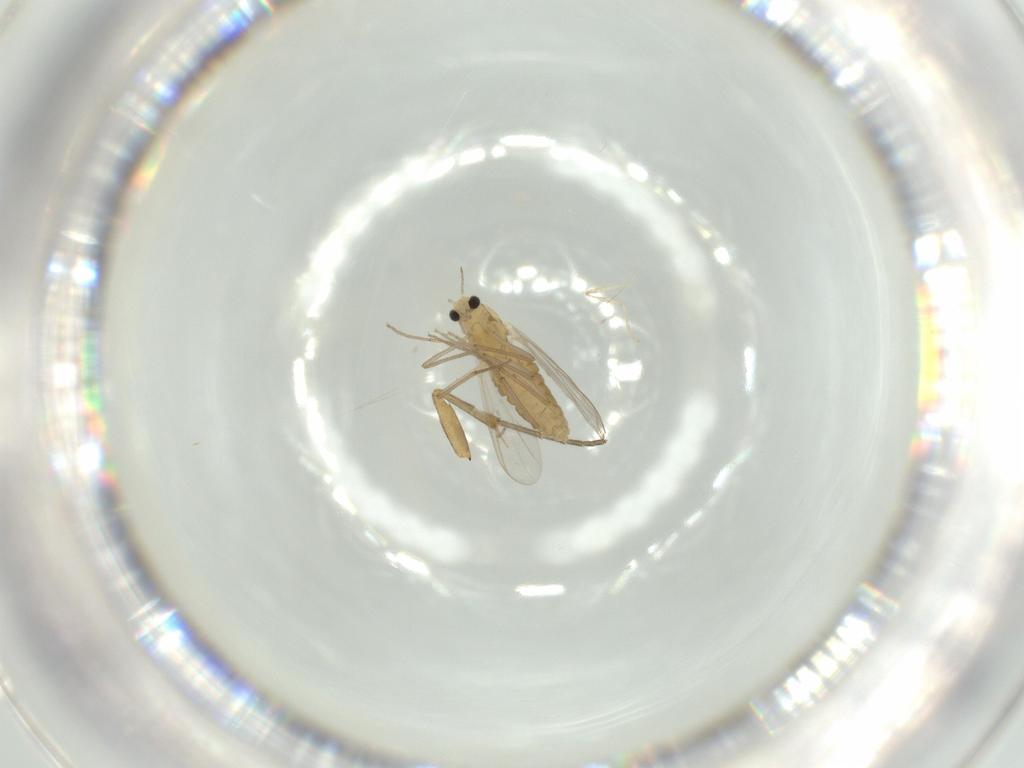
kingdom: Animalia
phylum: Arthropoda
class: Insecta
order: Diptera
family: Mycetophilidae
